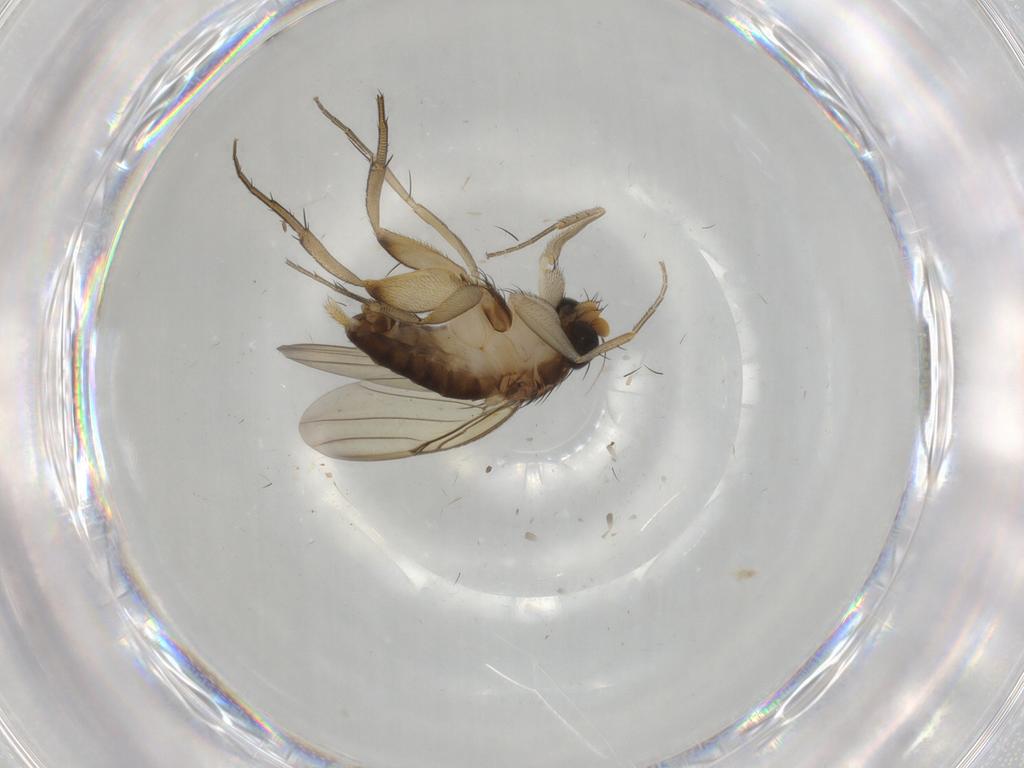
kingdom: Animalia
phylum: Arthropoda
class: Insecta
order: Diptera
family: Phoridae
